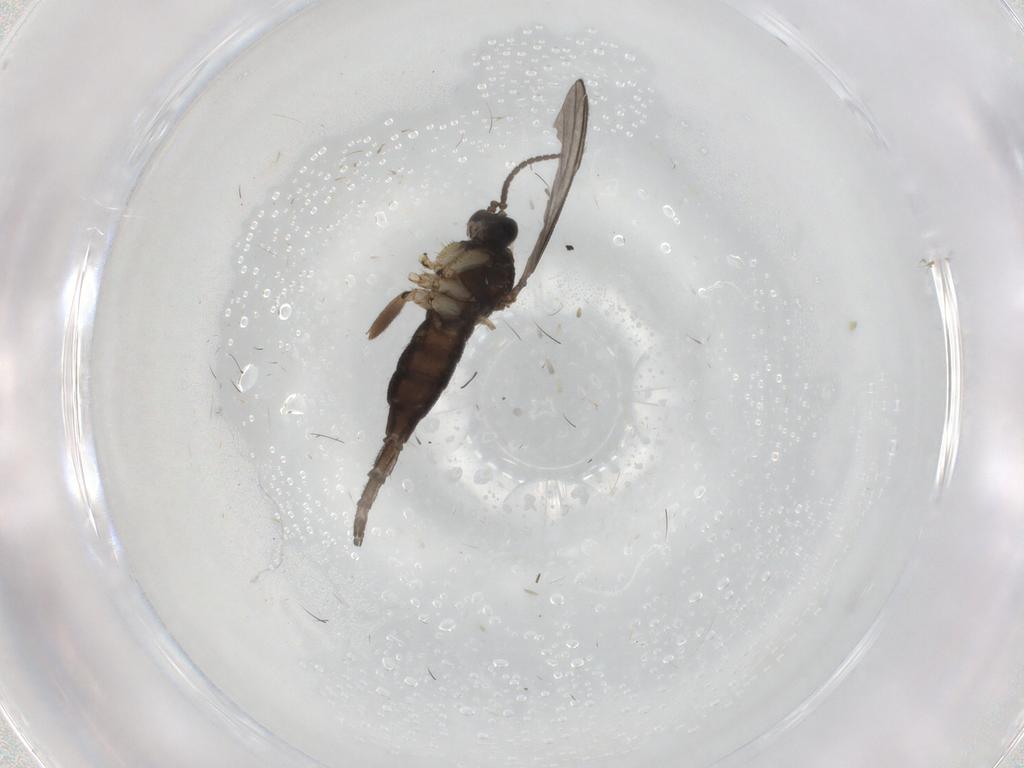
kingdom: Animalia
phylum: Arthropoda
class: Insecta
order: Diptera
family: Sciaridae
